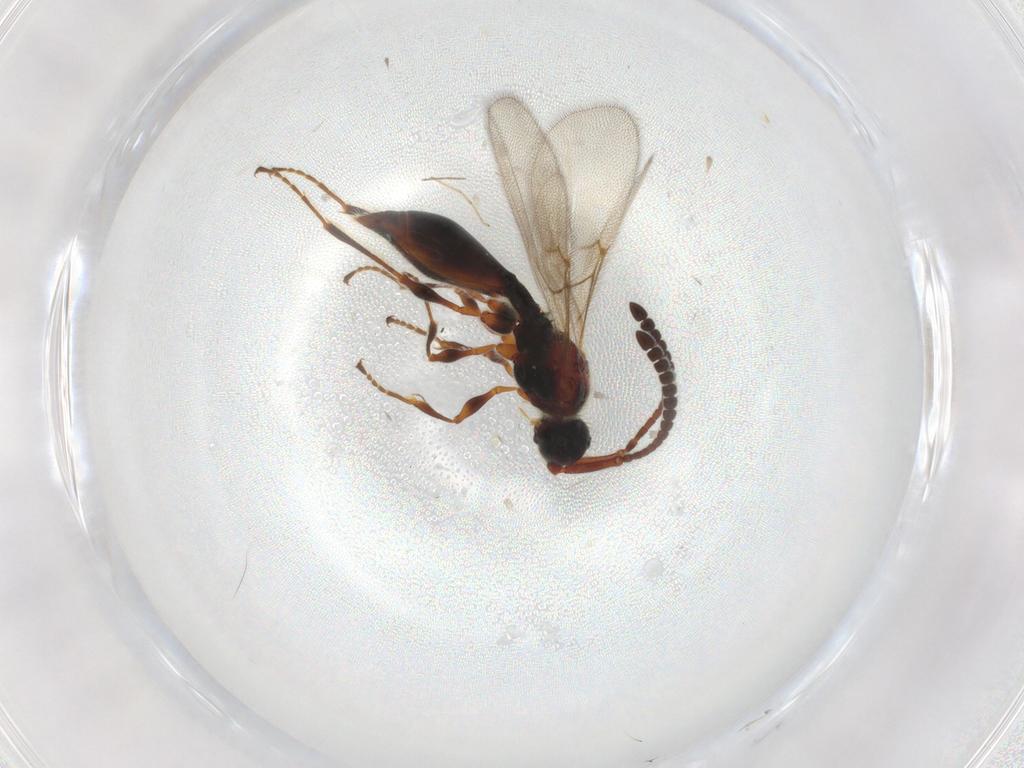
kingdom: Animalia
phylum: Arthropoda
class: Insecta
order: Hymenoptera
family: Diapriidae
